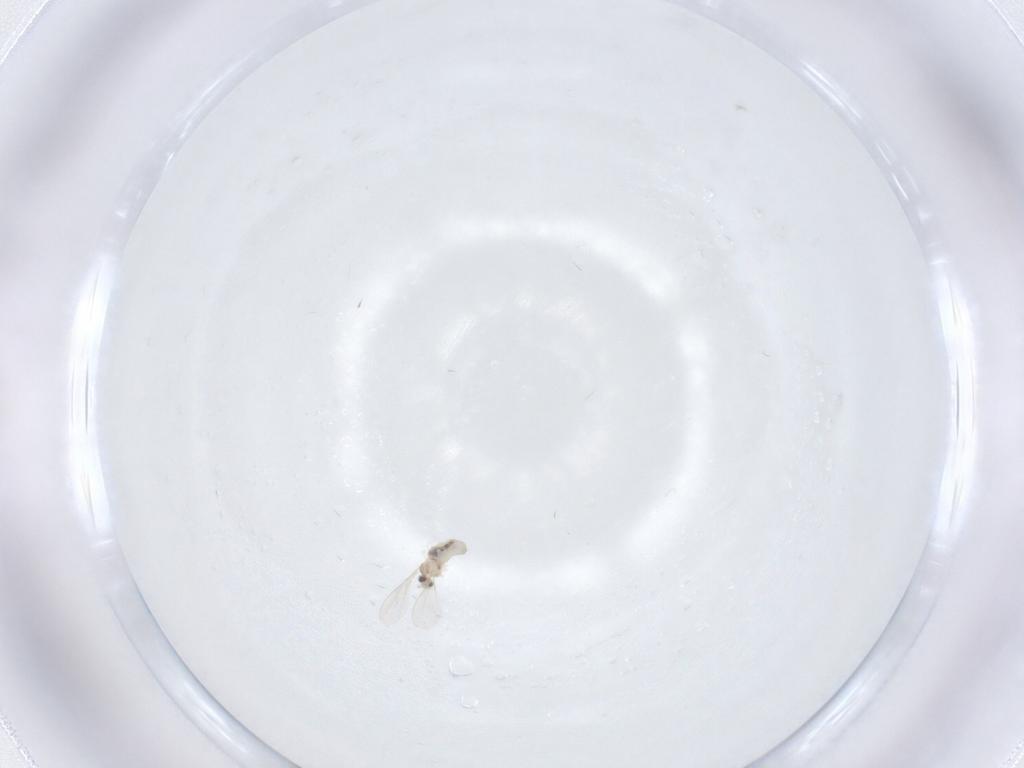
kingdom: Animalia
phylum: Arthropoda
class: Insecta
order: Diptera
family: Cecidomyiidae
